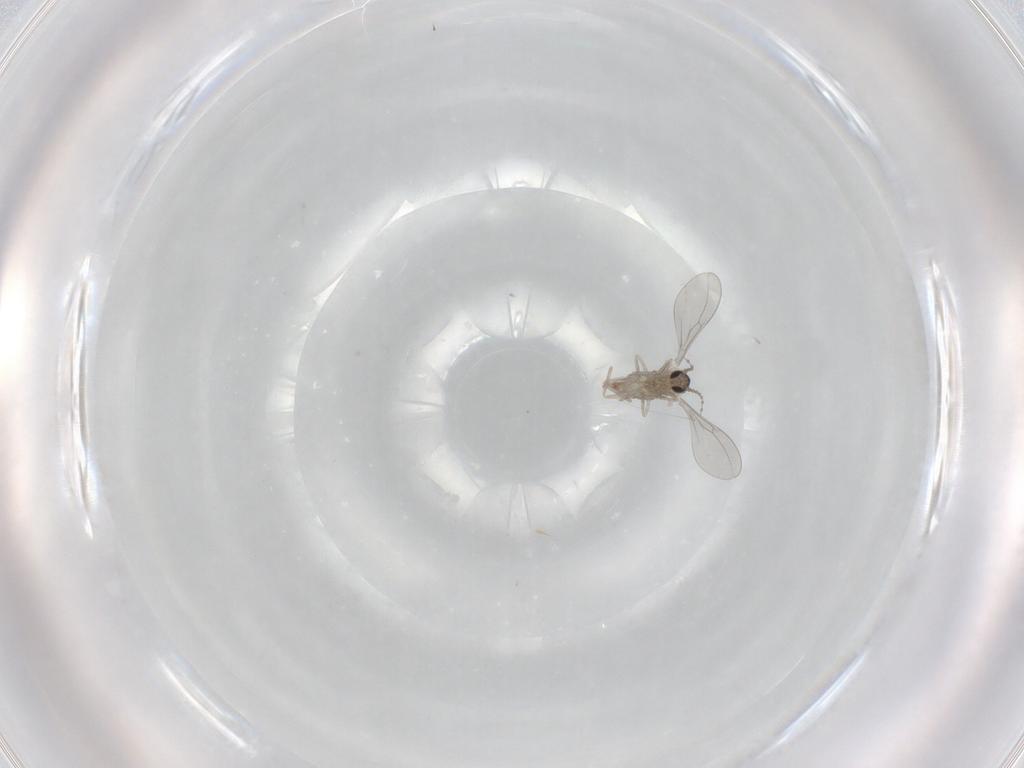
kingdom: Animalia
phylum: Arthropoda
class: Insecta
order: Diptera
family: Cecidomyiidae
